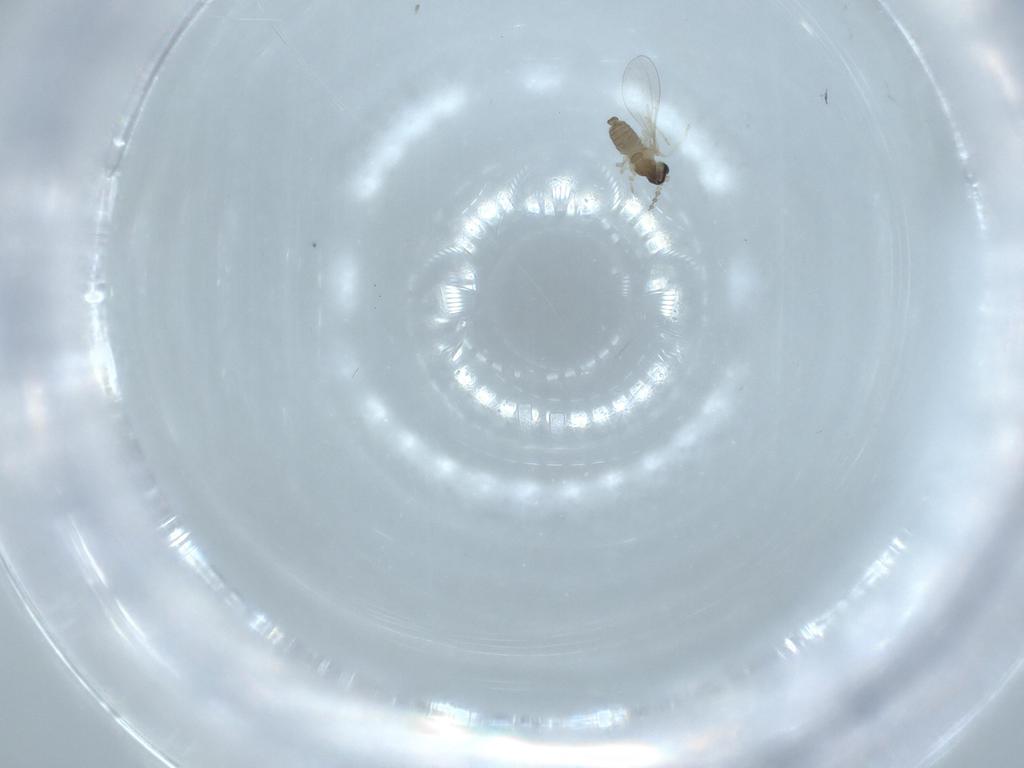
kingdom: Animalia
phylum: Arthropoda
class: Insecta
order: Diptera
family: Cecidomyiidae
